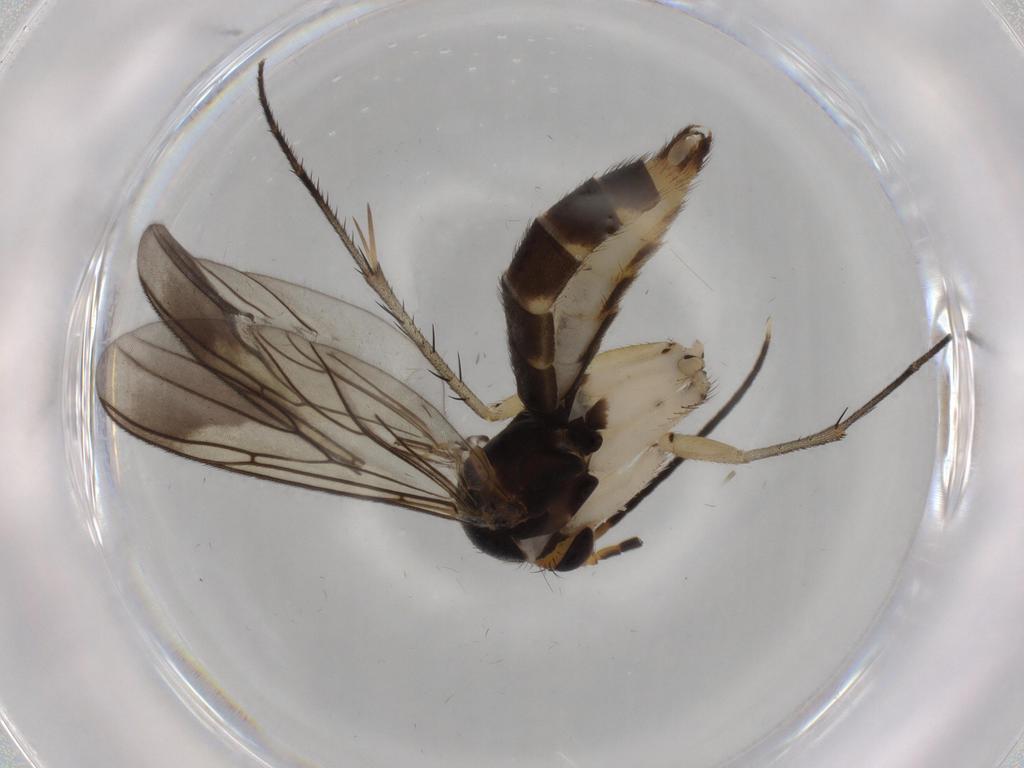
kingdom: Animalia
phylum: Arthropoda
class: Insecta
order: Diptera
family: Mycetophilidae
